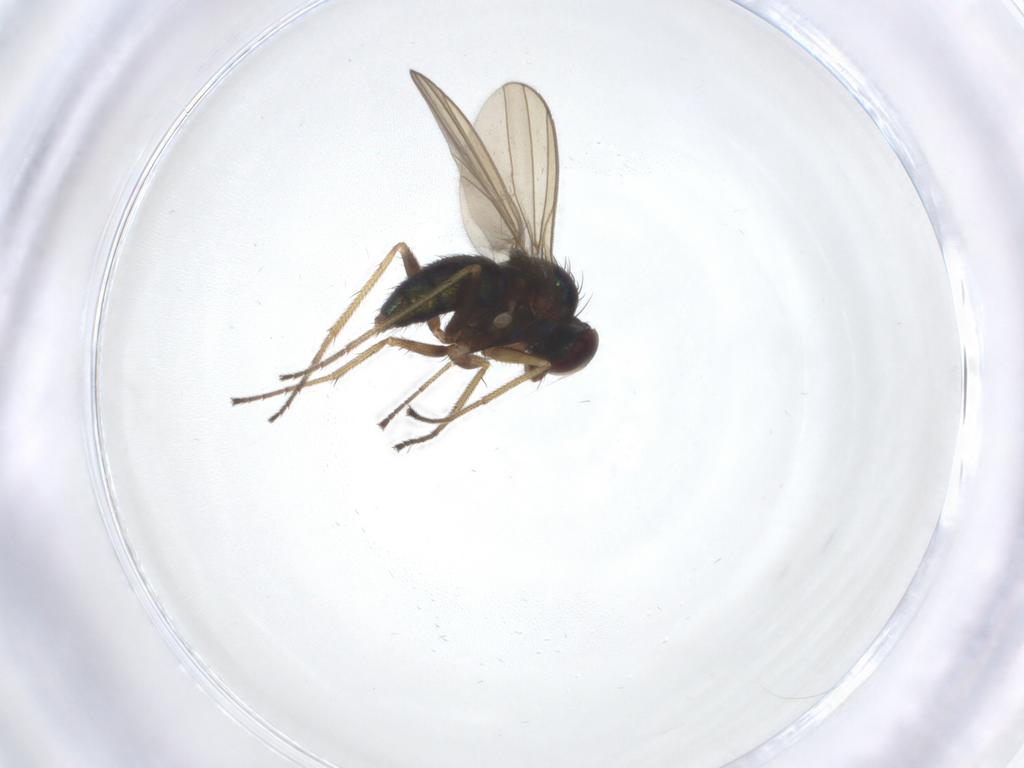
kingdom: Animalia
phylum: Arthropoda
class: Insecta
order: Diptera
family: Dolichopodidae
